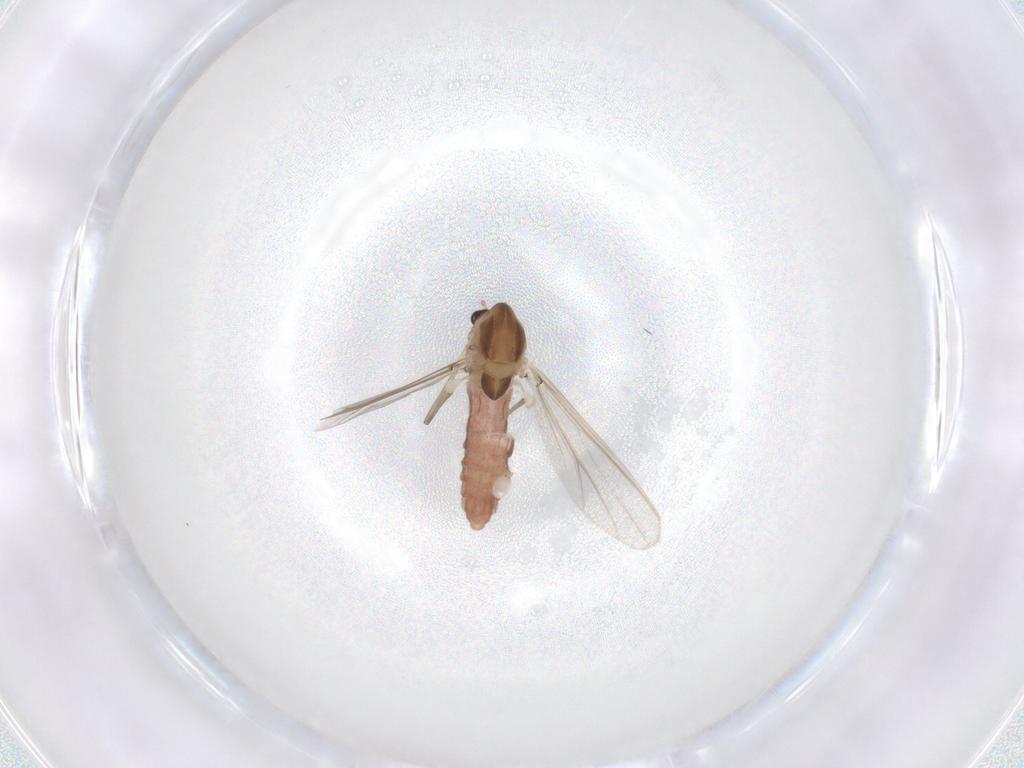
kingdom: Animalia
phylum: Arthropoda
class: Insecta
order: Diptera
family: Chironomidae
